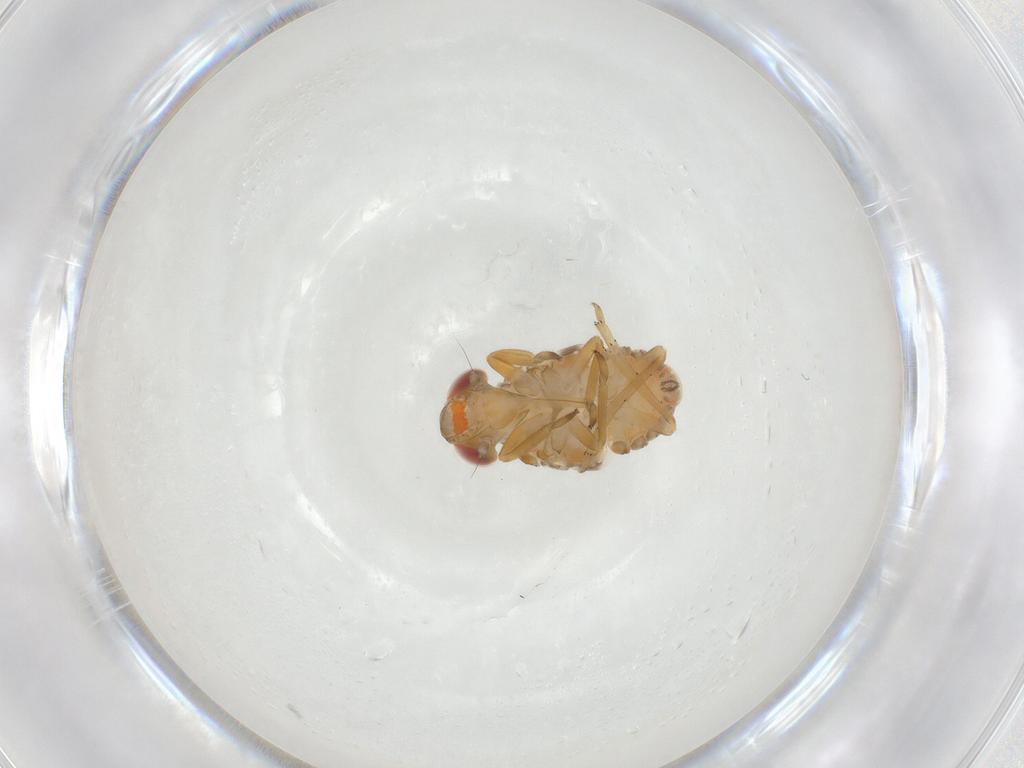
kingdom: Animalia
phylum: Arthropoda
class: Insecta
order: Hemiptera
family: Issidae
